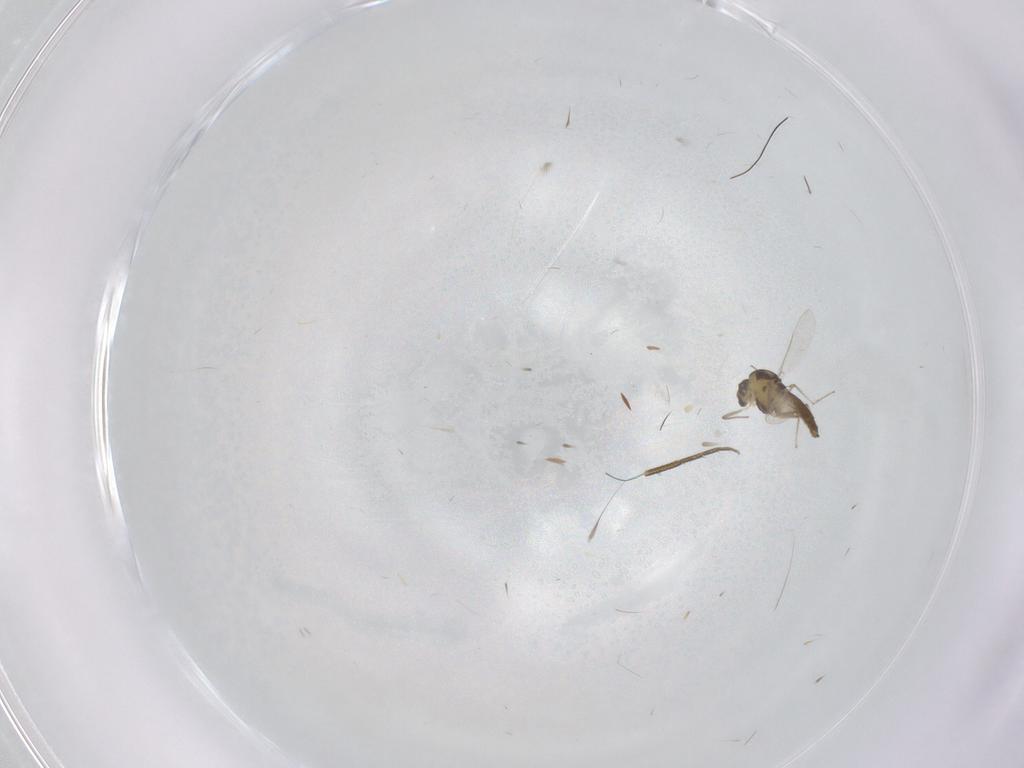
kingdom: Animalia
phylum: Arthropoda
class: Insecta
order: Diptera
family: Chironomidae
